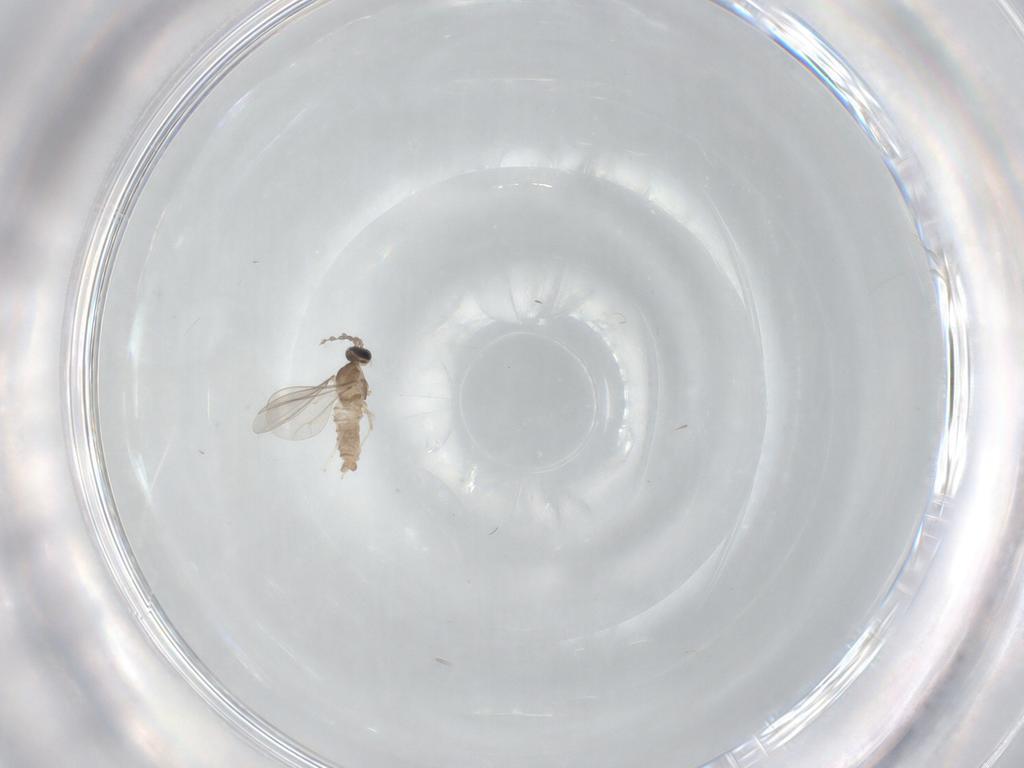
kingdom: Animalia
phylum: Arthropoda
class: Insecta
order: Diptera
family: Cecidomyiidae
